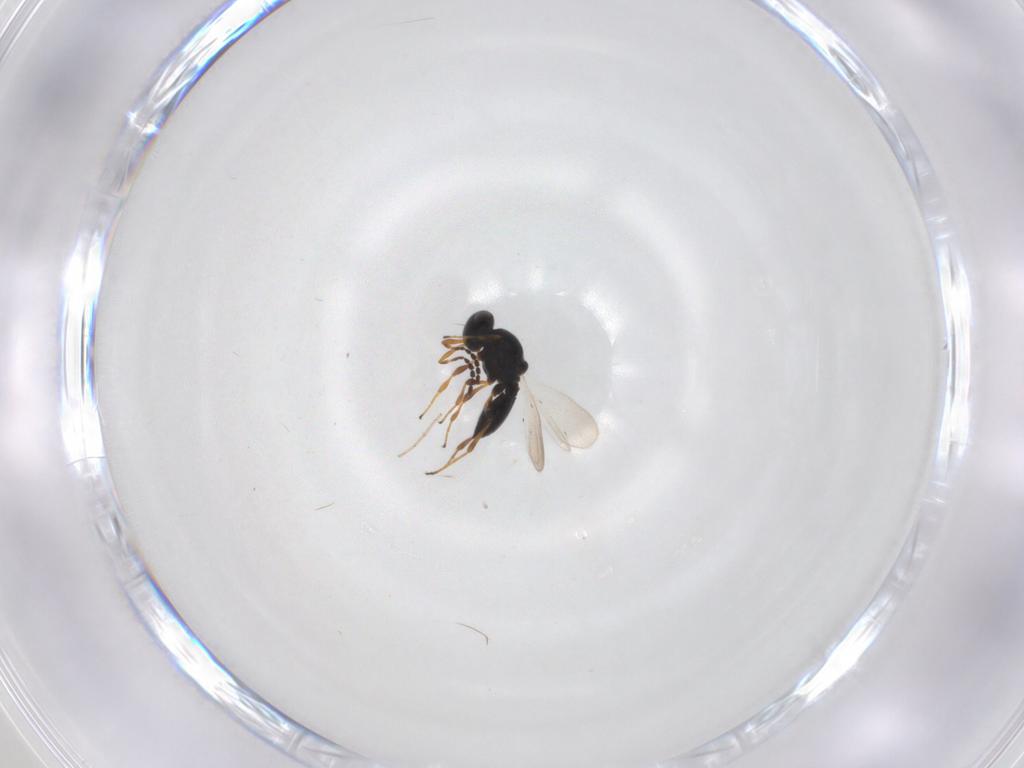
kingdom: Animalia
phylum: Arthropoda
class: Insecta
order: Hymenoptera
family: Platygastridae
